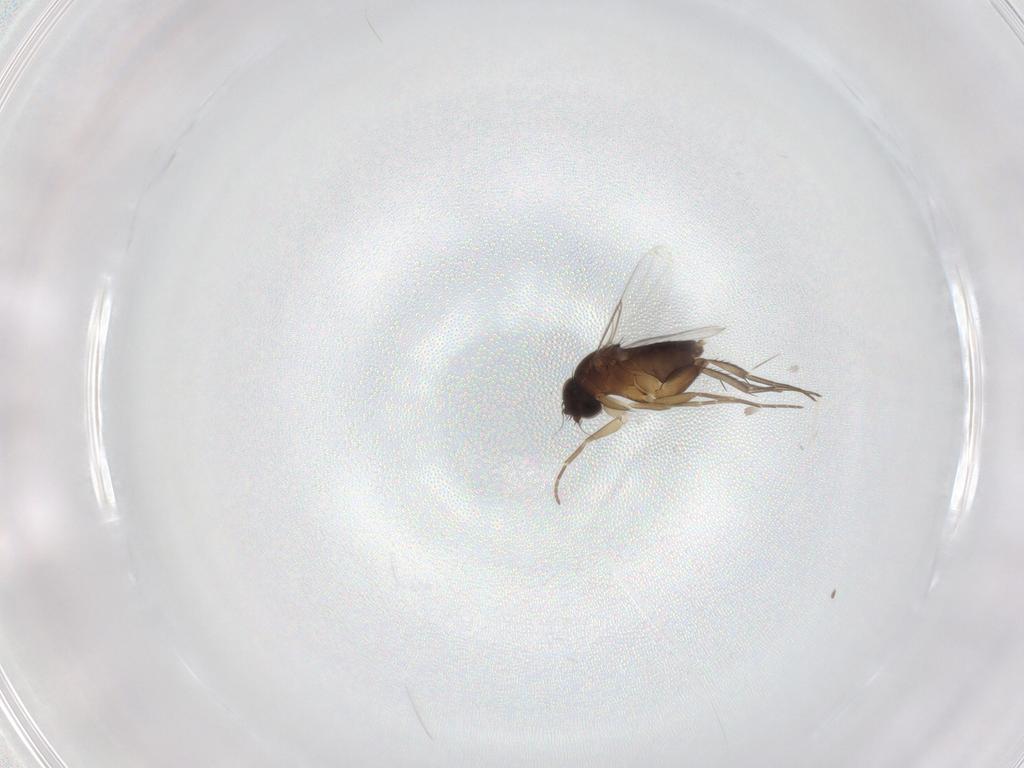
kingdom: Animalia
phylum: Arthropoda
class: Insecta
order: Diptera
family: Phoridae
